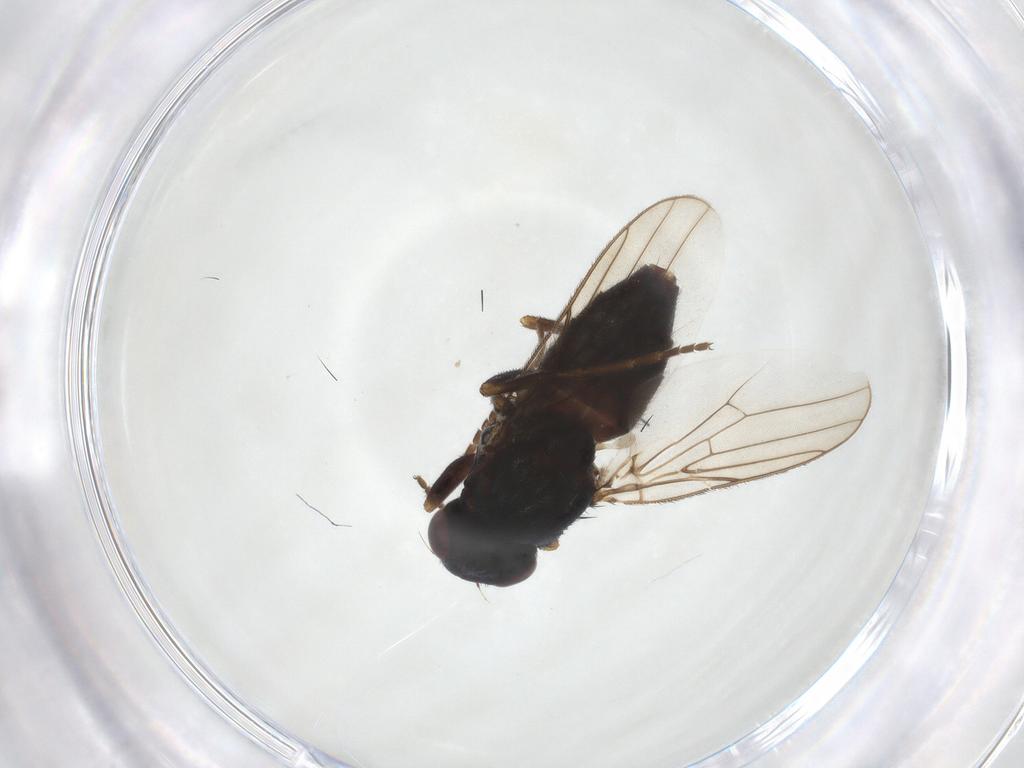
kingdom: Animalia
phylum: Arthropoda
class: Insecta
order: Diptera
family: Chloropidae
